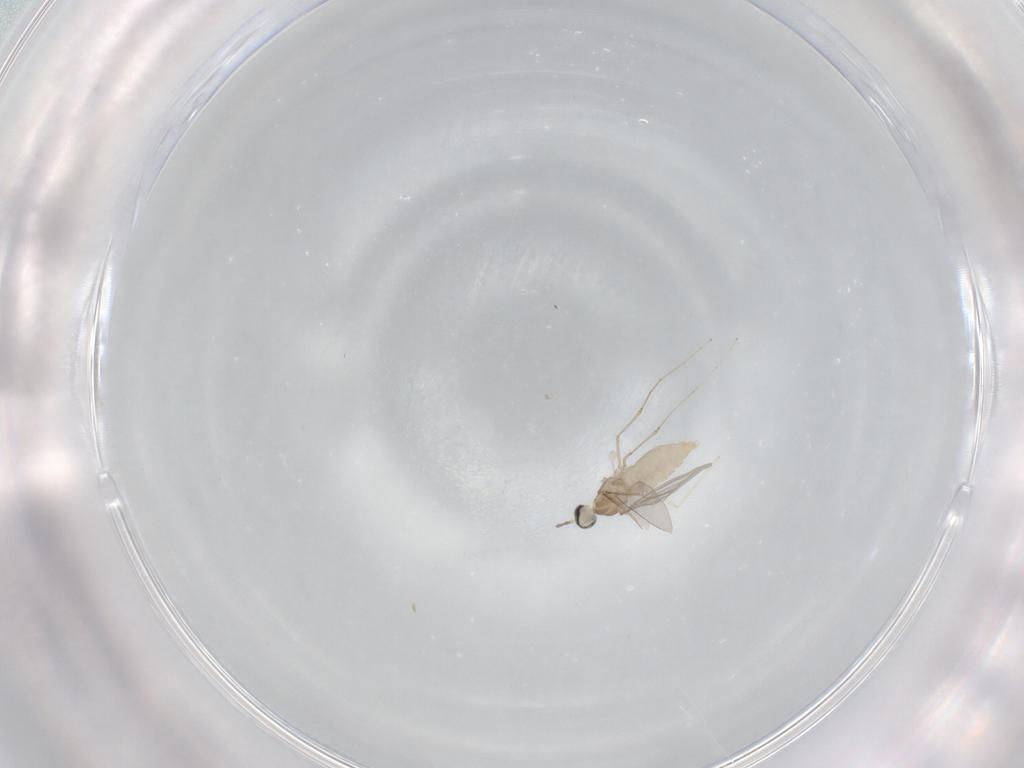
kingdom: Animalia
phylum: Arthropoda
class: Insecta
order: Diptera
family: Cecidomyiidae
